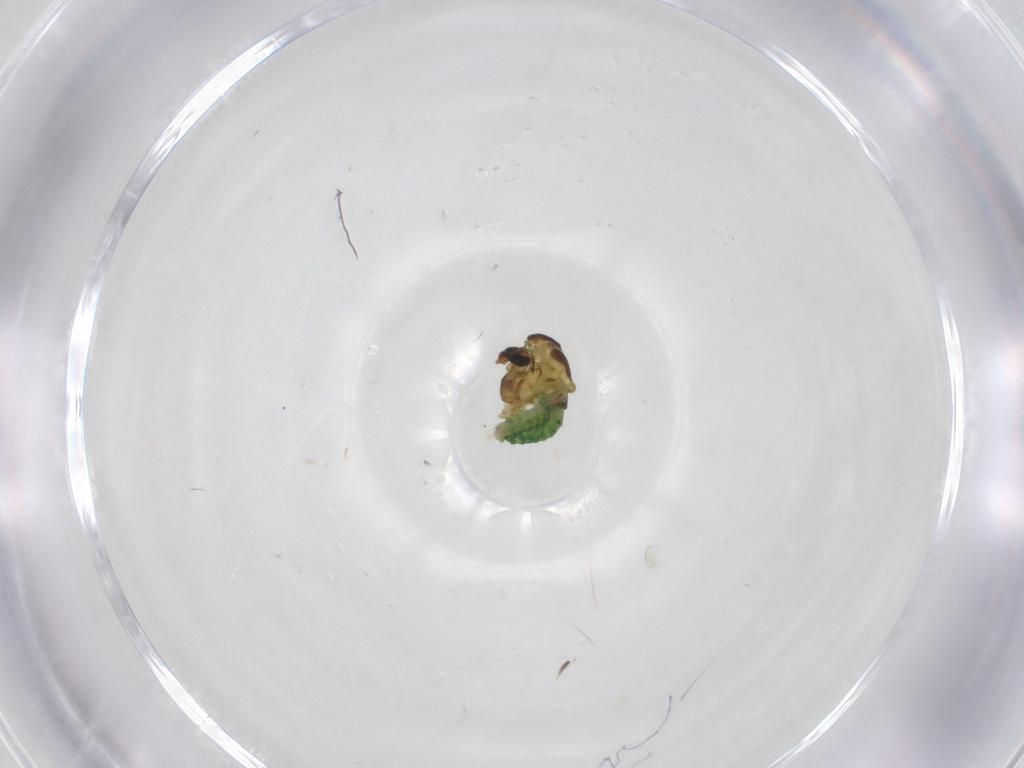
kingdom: Animalia
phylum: Arthropoda
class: Insecta
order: Diptera
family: Chironomidae
